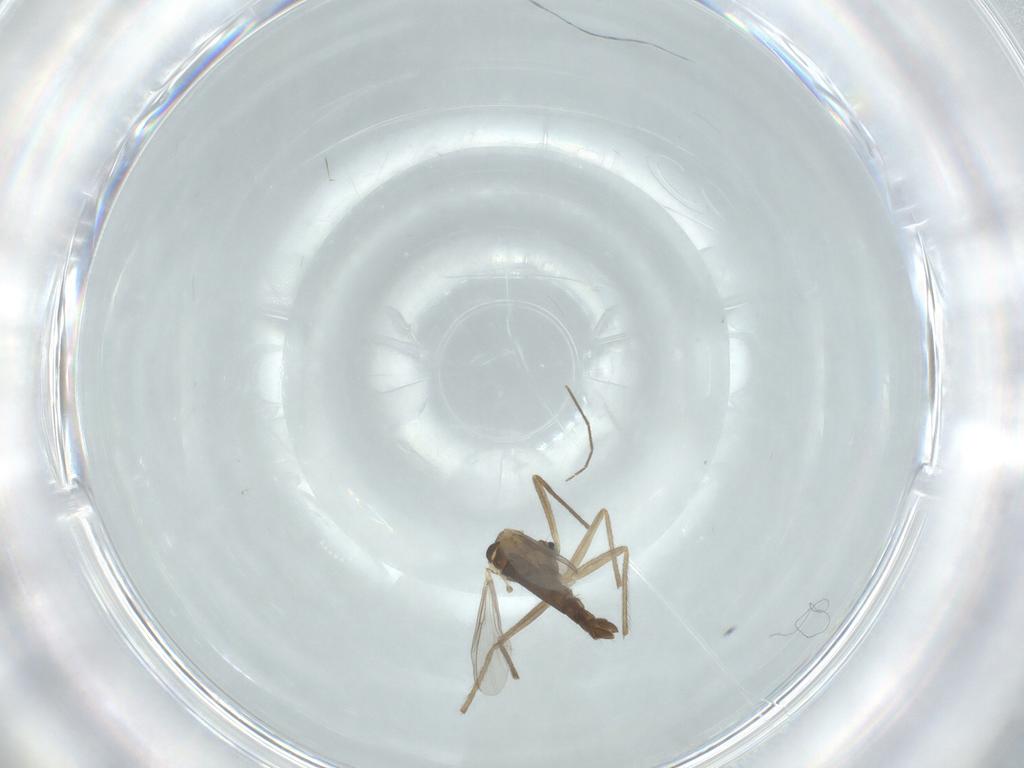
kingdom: Animalia
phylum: Arthropoda
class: Insecta
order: Diptera
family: Chironomidae
